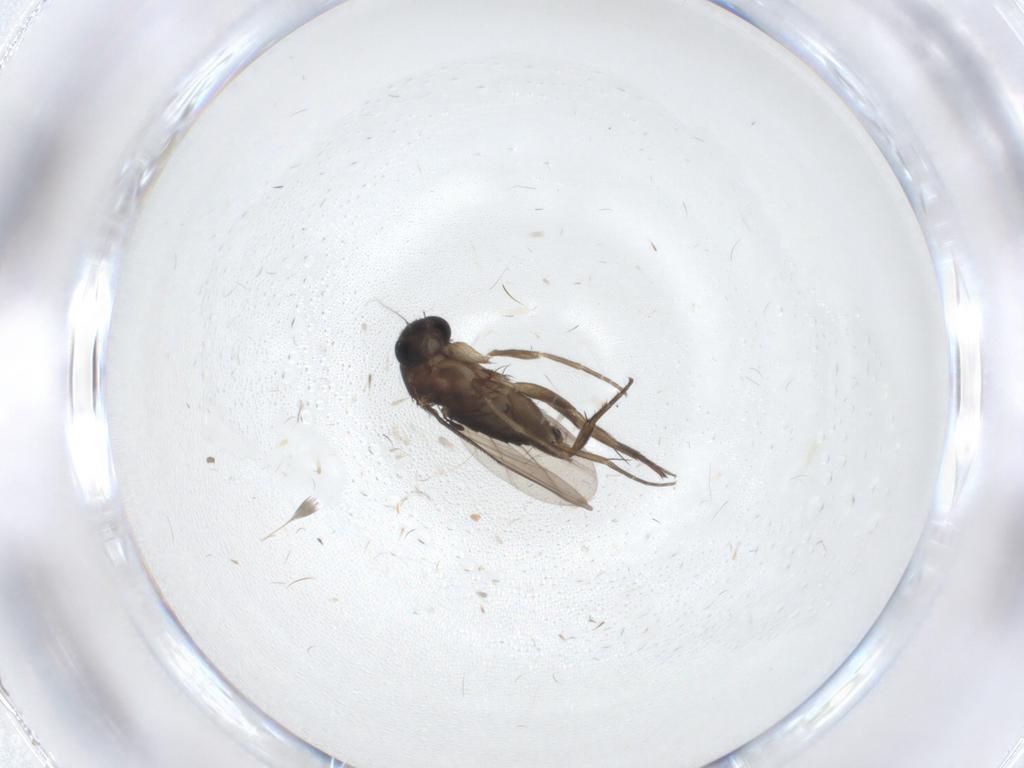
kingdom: Animalia
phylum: Arthropoda
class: Insecta
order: Diptera
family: Phoridae
